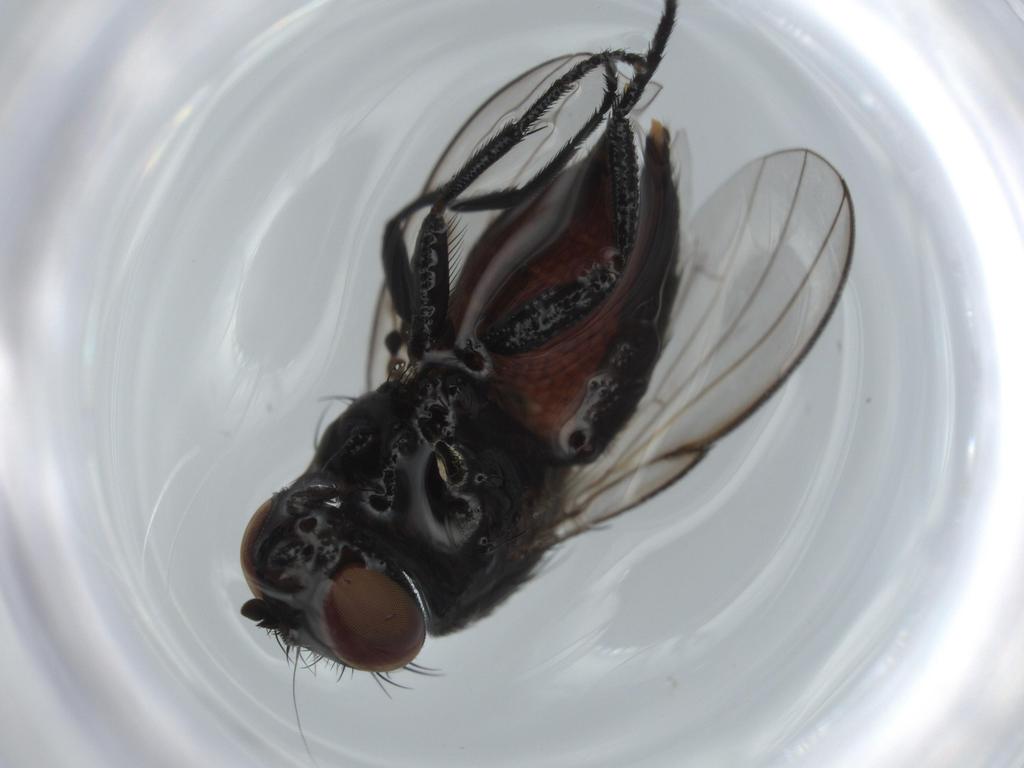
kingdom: Animalia
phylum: Arthropoda
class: Insecta
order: Diptera
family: Milichiidae
